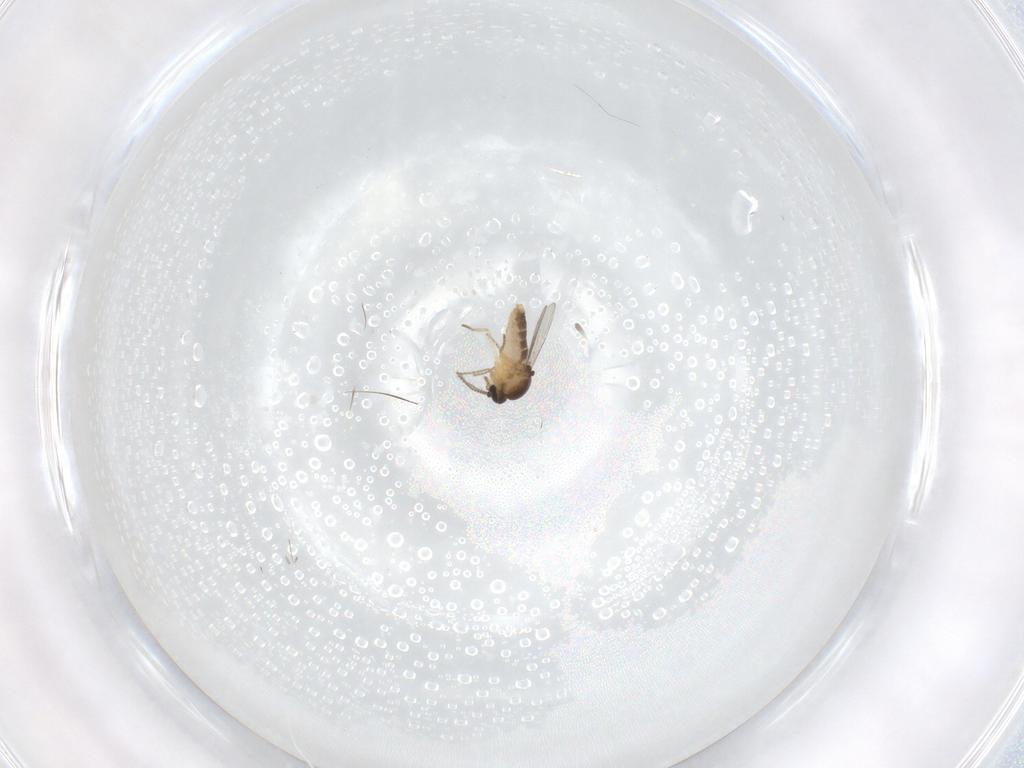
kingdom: Animalia
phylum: Arthropoda
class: Insecta
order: Diptera
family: Ceratopogonidae
